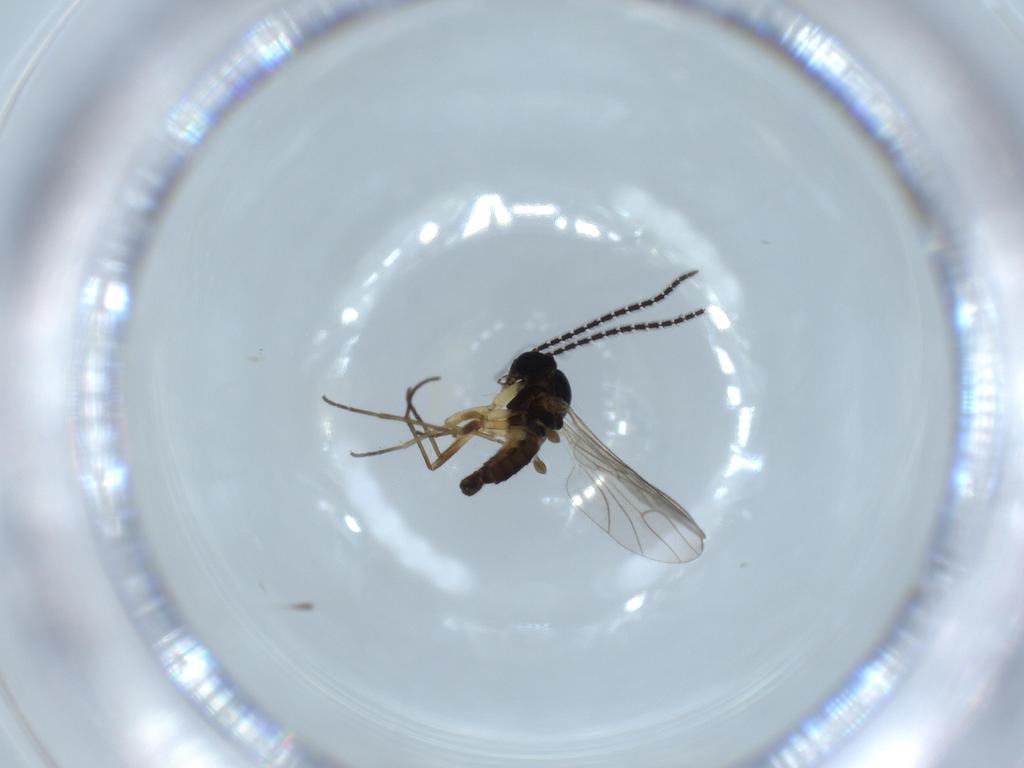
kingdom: Animalia
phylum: Arthropoda
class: Insecta
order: Diptera
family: Sciaridae
